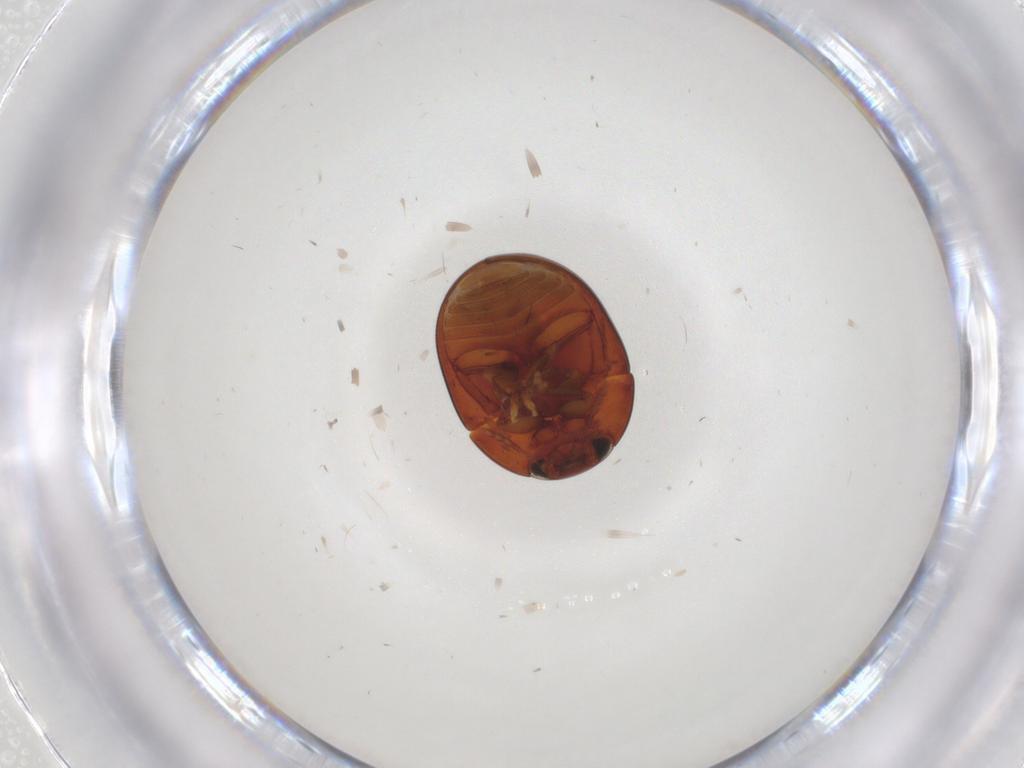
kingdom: Animalia
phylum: Arthropoda
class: Insecta
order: Coleoptera
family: Phalacridae
